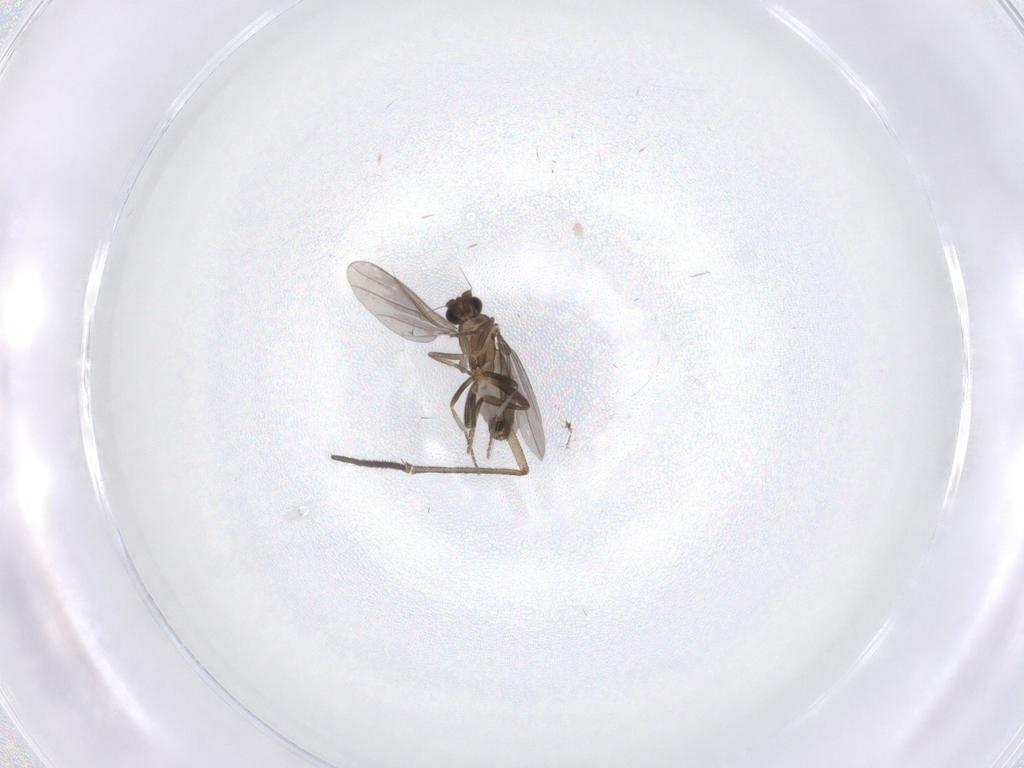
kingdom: Animalia
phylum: Arthropoda
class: Insecta
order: Diptera
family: Sciaridae
